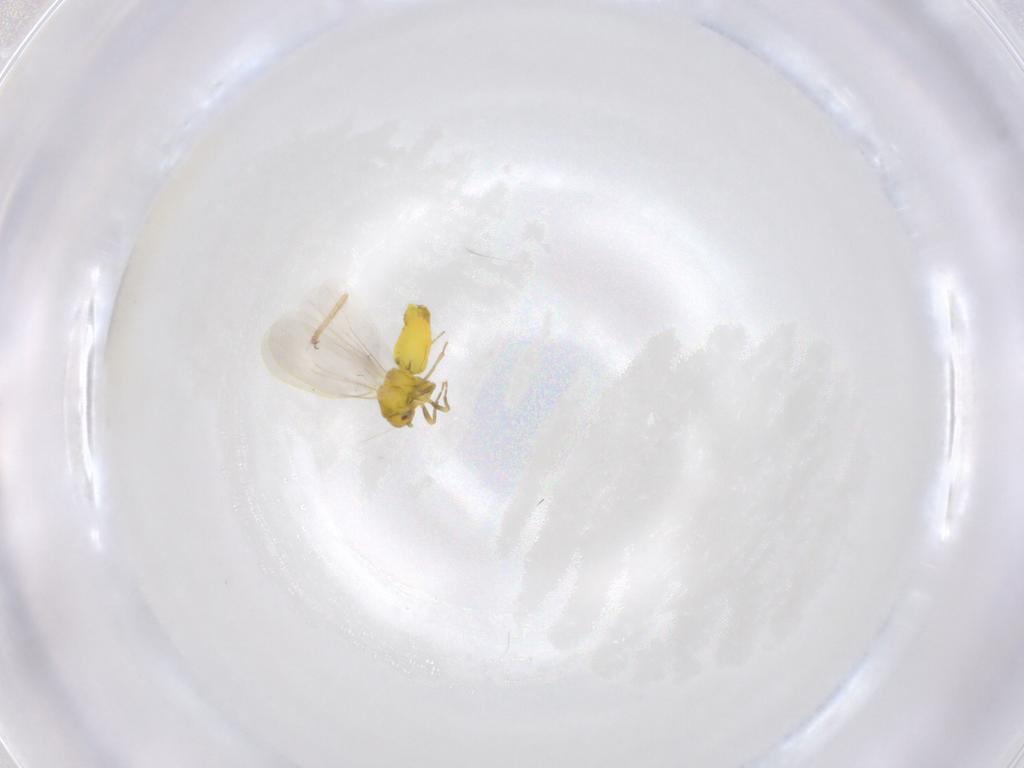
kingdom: Animalia
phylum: Arthropoda
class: Insecta
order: Hemiptera
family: Aleyrodidae
